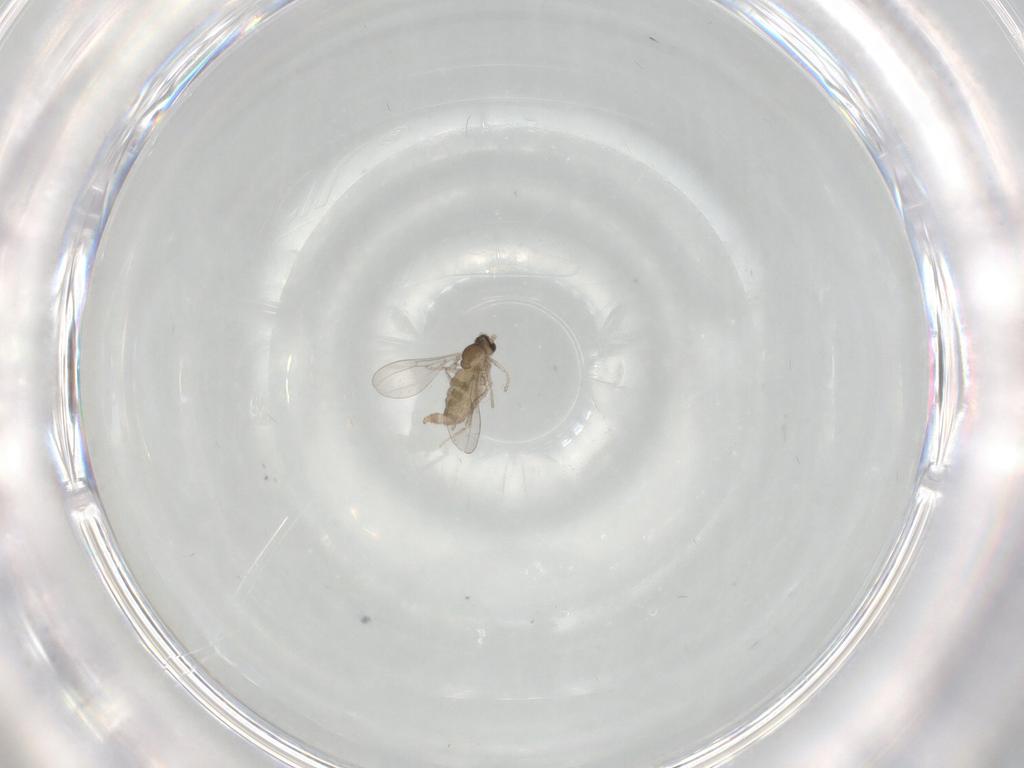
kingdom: Animalia
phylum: Arthropoda
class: Insecta
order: Diptera
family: Cecidomyiidae
